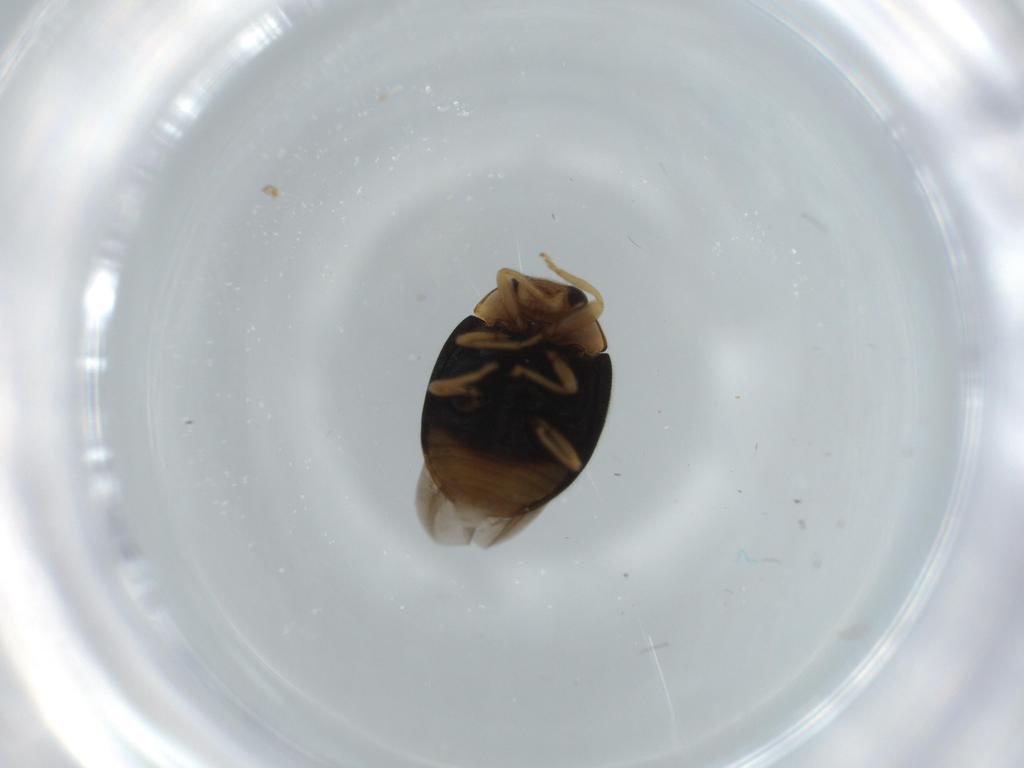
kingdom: Animalia
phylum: Arthropoda
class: Insecta
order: Coleoptera
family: Coccinellidae
